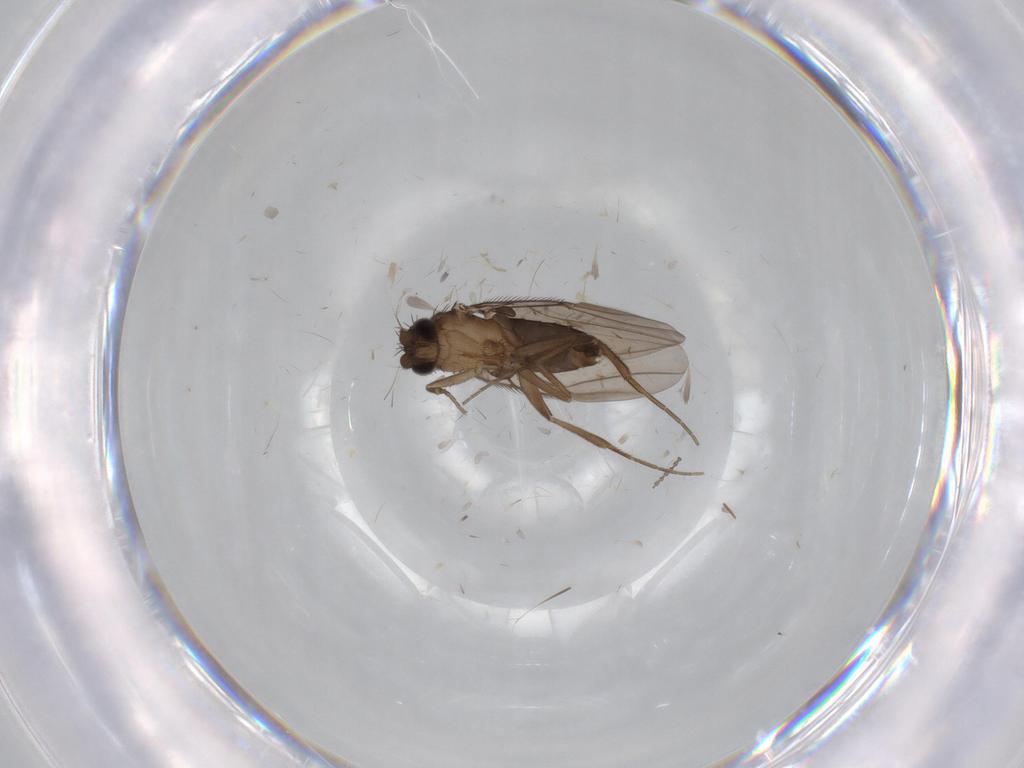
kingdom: Animalia
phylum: Arthropoda
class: Insecta
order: Diptera
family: Phoridae
